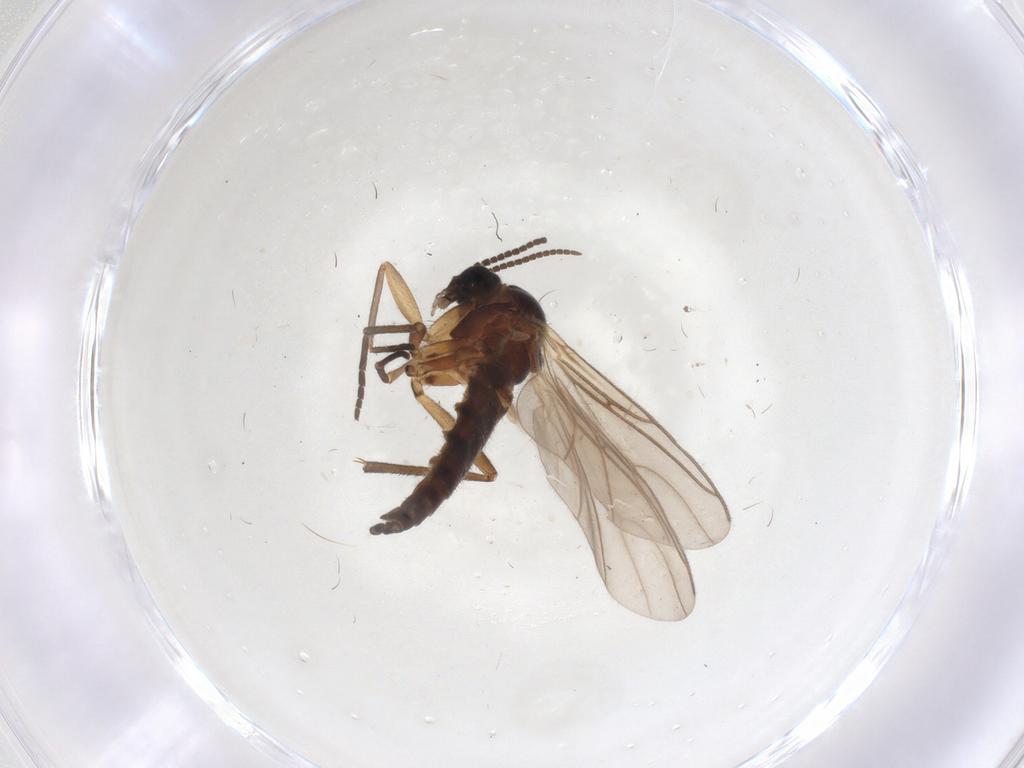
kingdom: Animalia
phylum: Arthropoda
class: Insecta
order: Diptera
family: Sciaridae
